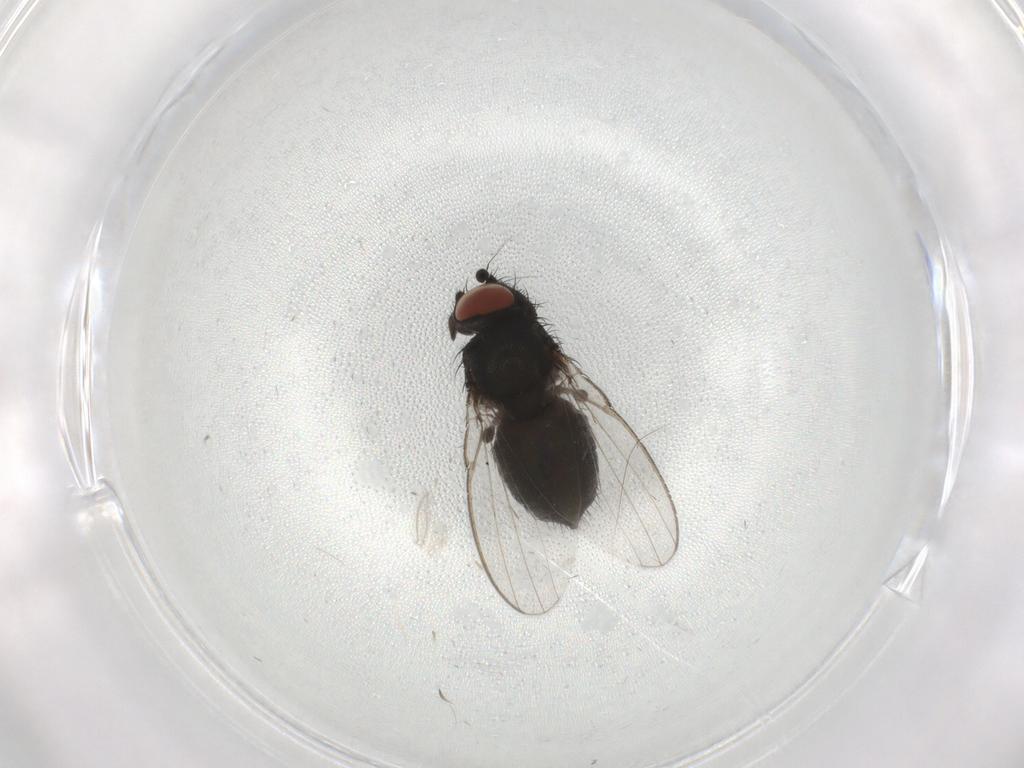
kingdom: Animalia
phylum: Arthropoda
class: Insecta
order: Diptera
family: Milichiidae
